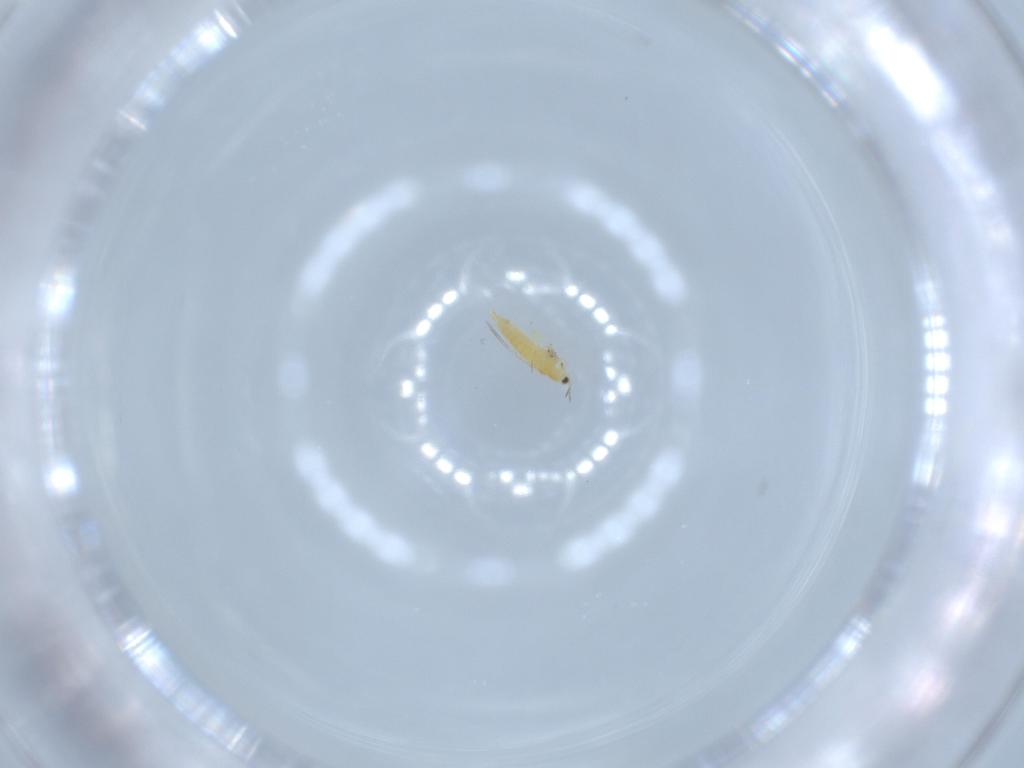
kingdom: Animalia
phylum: Arthropoda
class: Insecta
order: Thysanoptera
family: Thripidae
